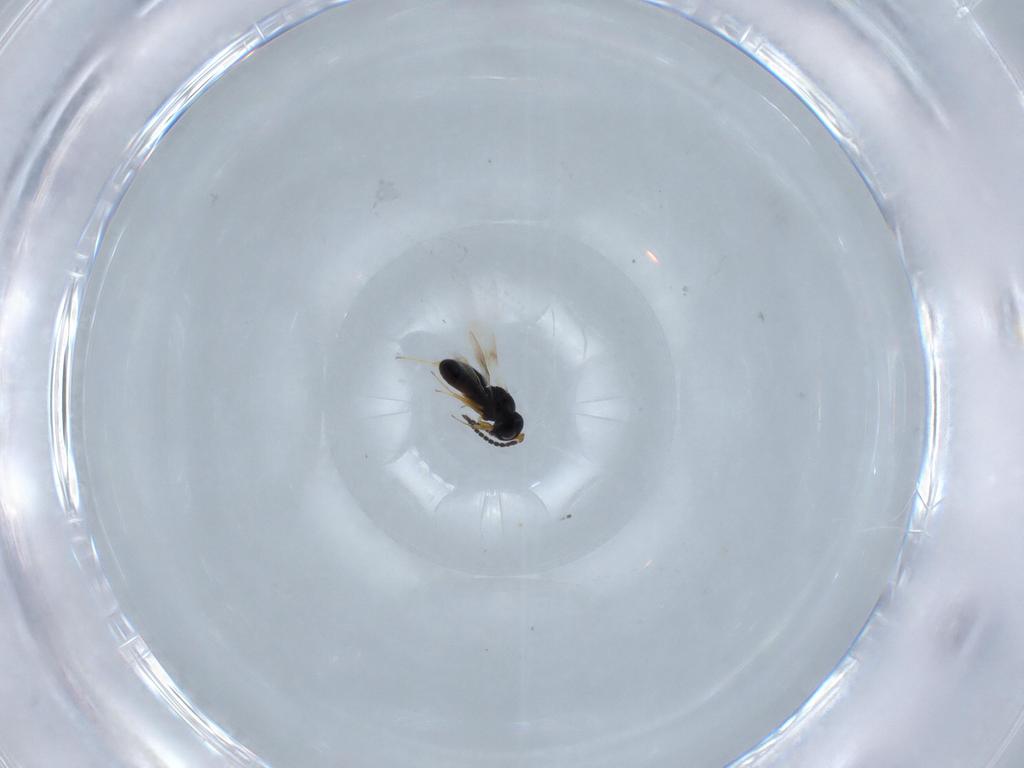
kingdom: Animalia
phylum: Arthropoda
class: Insecta
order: Hymenoptera
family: Scelionidae
